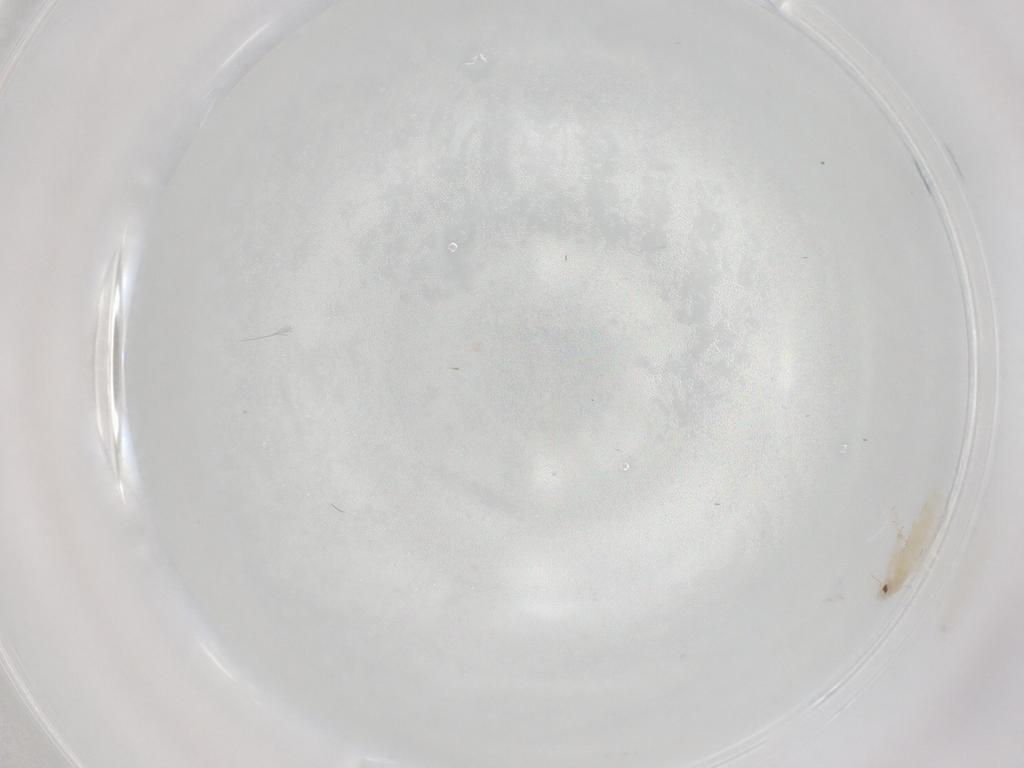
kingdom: Animalia
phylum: Arthropoda
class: Insecta
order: Hemiptera
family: Aleyrodidae
